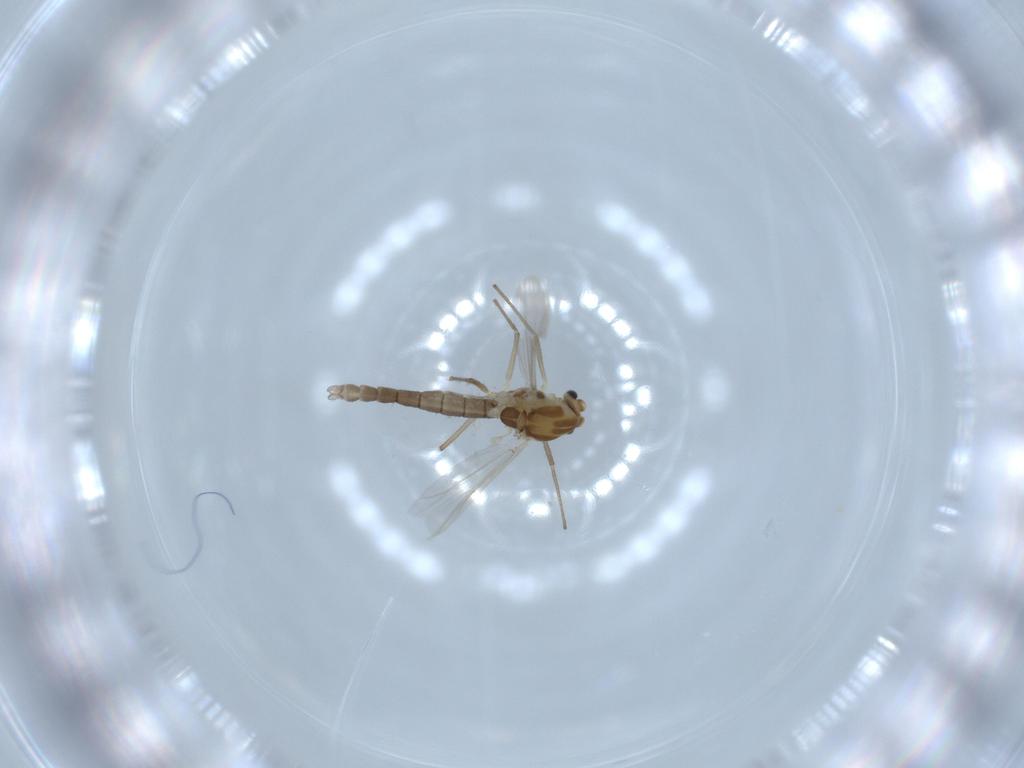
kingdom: Animalia
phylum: Arthropoda
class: Insecta
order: Diptera
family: Chironomidae
